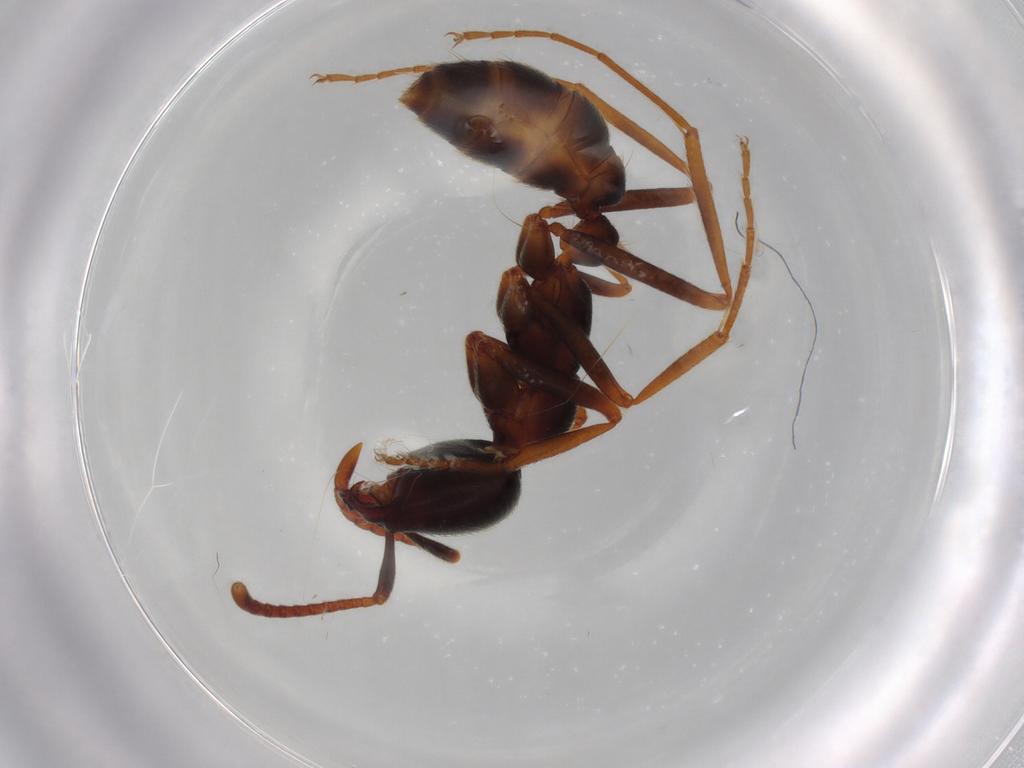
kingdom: Animalia
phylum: Arthropoda
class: Insecta
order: Hymenoptera
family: Formicidae
